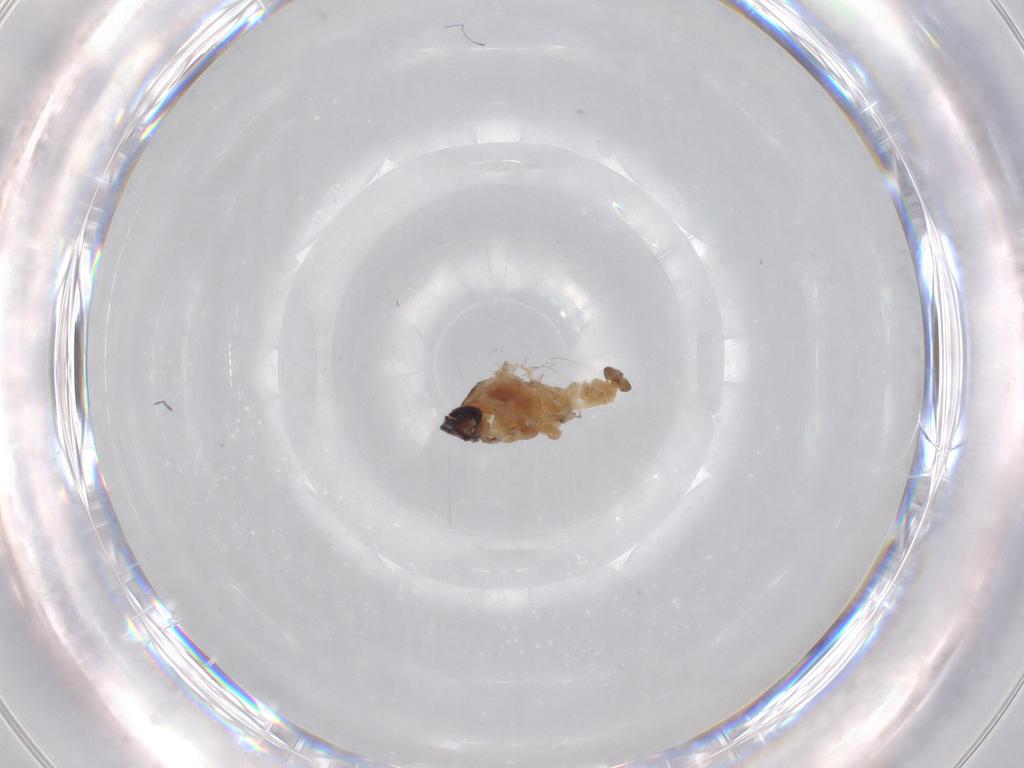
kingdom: Animalia
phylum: Arthropoda
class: Insecta
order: Diptera
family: Cecidomyiidae
